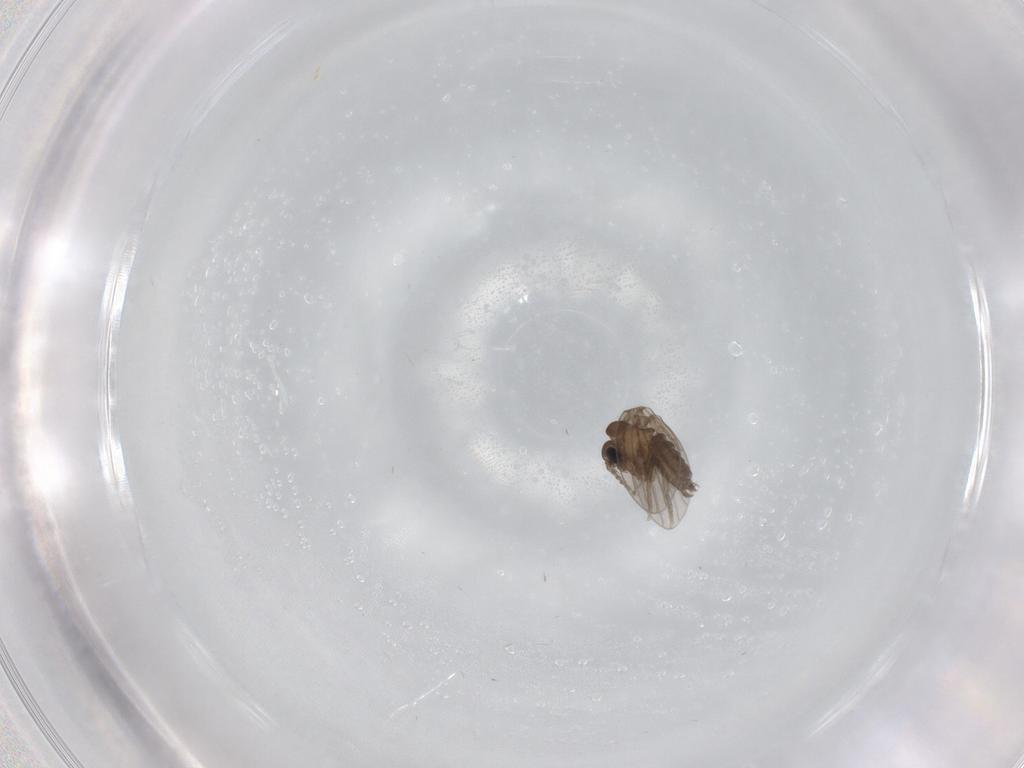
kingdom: Animalia
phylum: Arthropoda
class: Insecta
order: Diptera
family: Psychodidae
